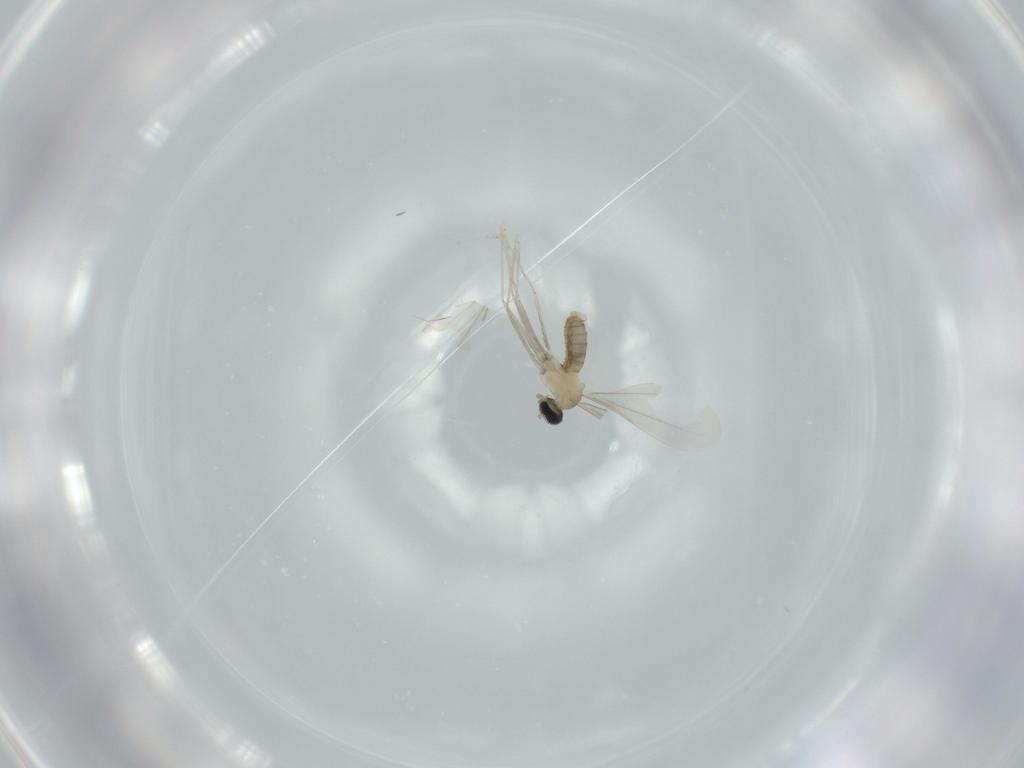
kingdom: Animalia
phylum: Arthropoda
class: Insecta
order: Diptera
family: Cecidomyiidae
